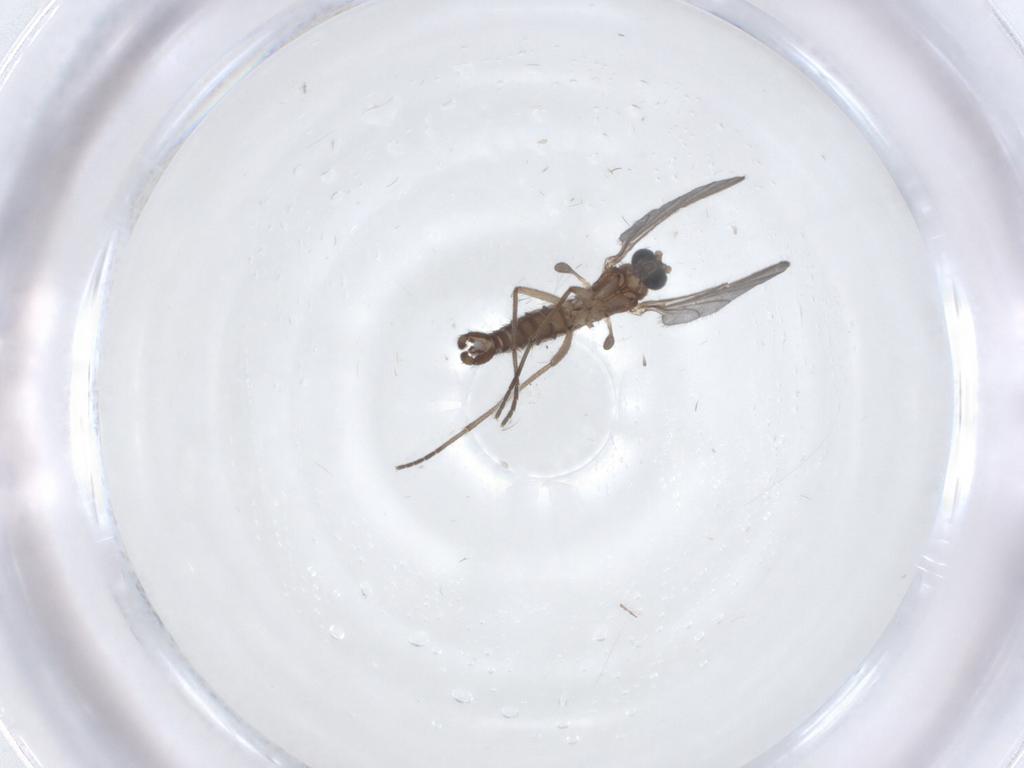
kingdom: Animalia
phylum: Arthropoda
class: Insecta
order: Diptera
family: Sciaridae
